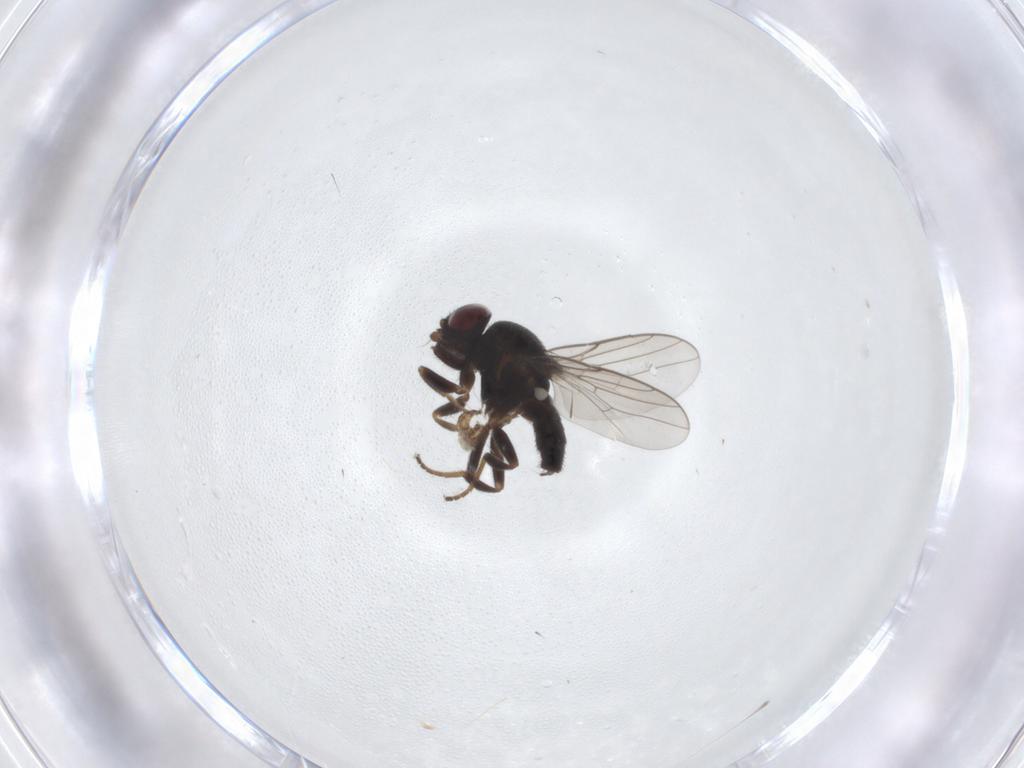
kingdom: Animalia
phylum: Arthropoda
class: Insecta
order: Diptera
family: Chloropidae
